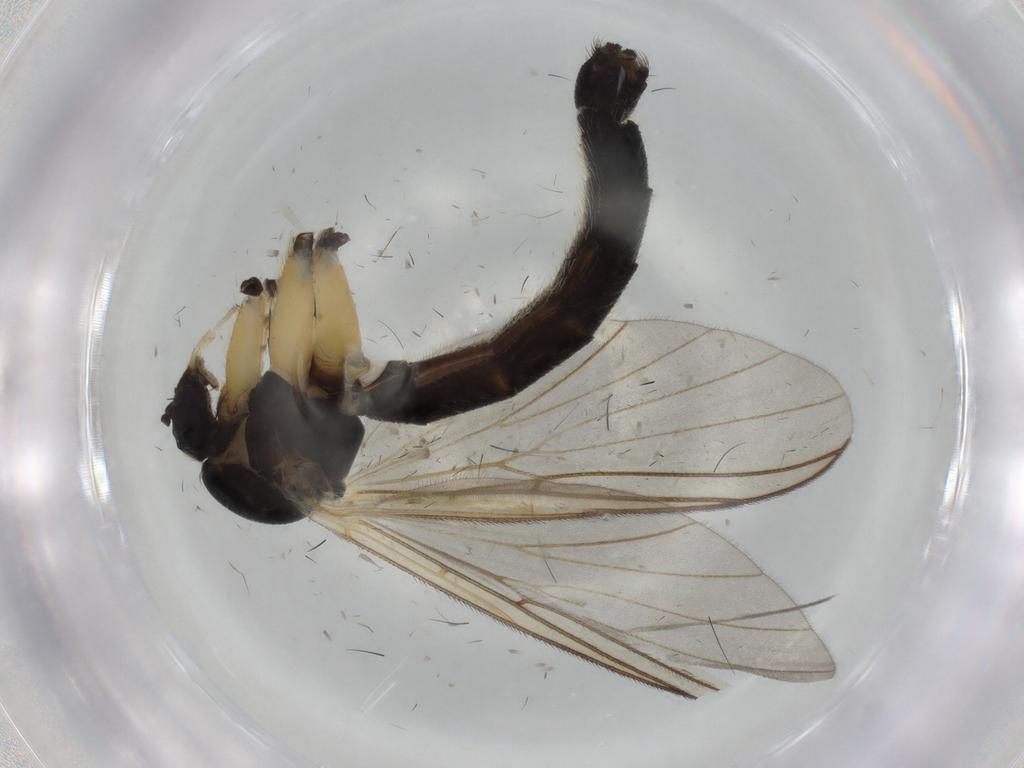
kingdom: Animalia
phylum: Arthropoda
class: Insecta
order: Diptera
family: Mycetophilidae
